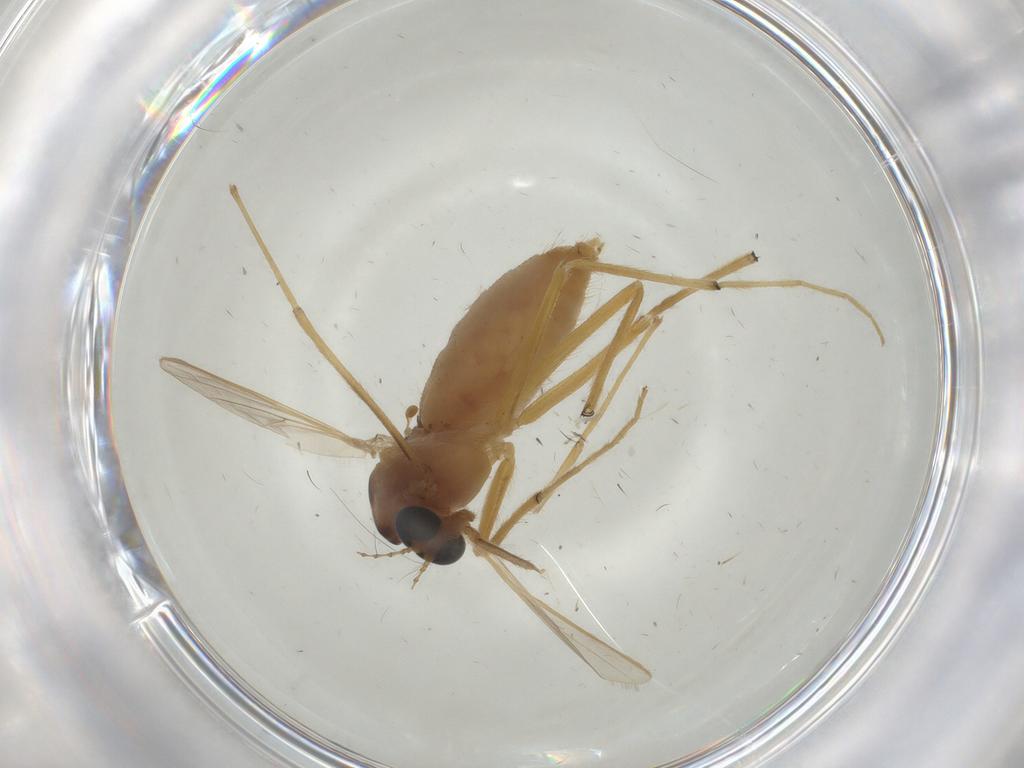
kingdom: Animalia
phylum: Arthropoda
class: Insecta
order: Diptera
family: Chironomidae
